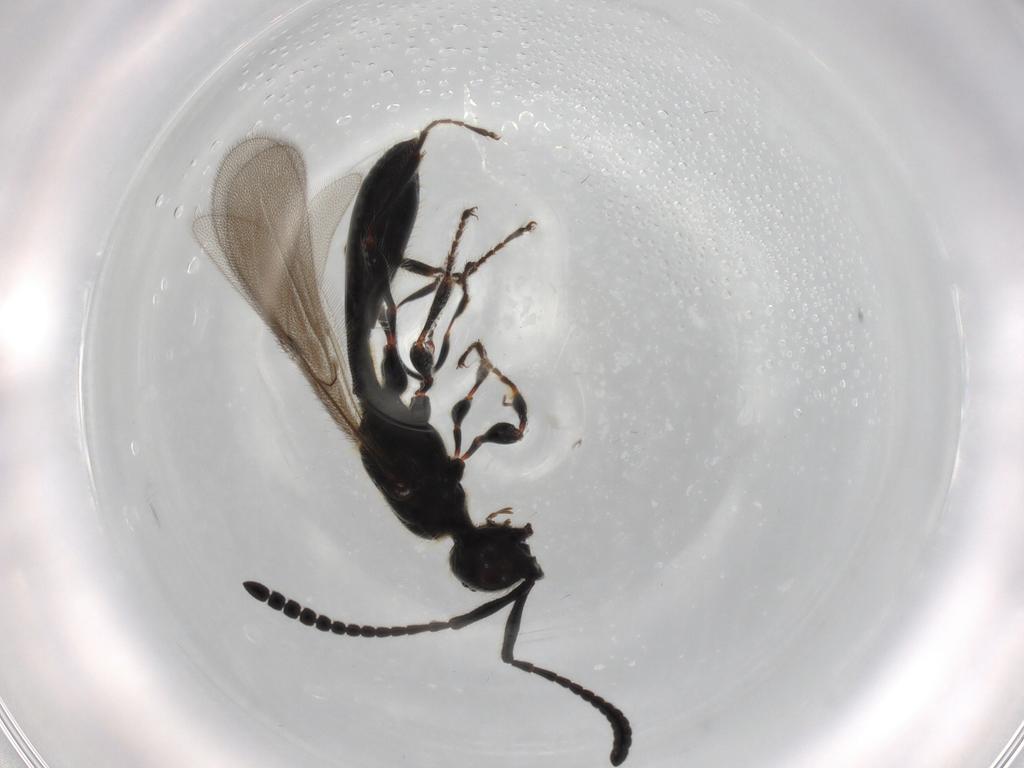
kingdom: Animalia
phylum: Arthropoda
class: Insecta
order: Hymenoptera
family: Diapriidae
